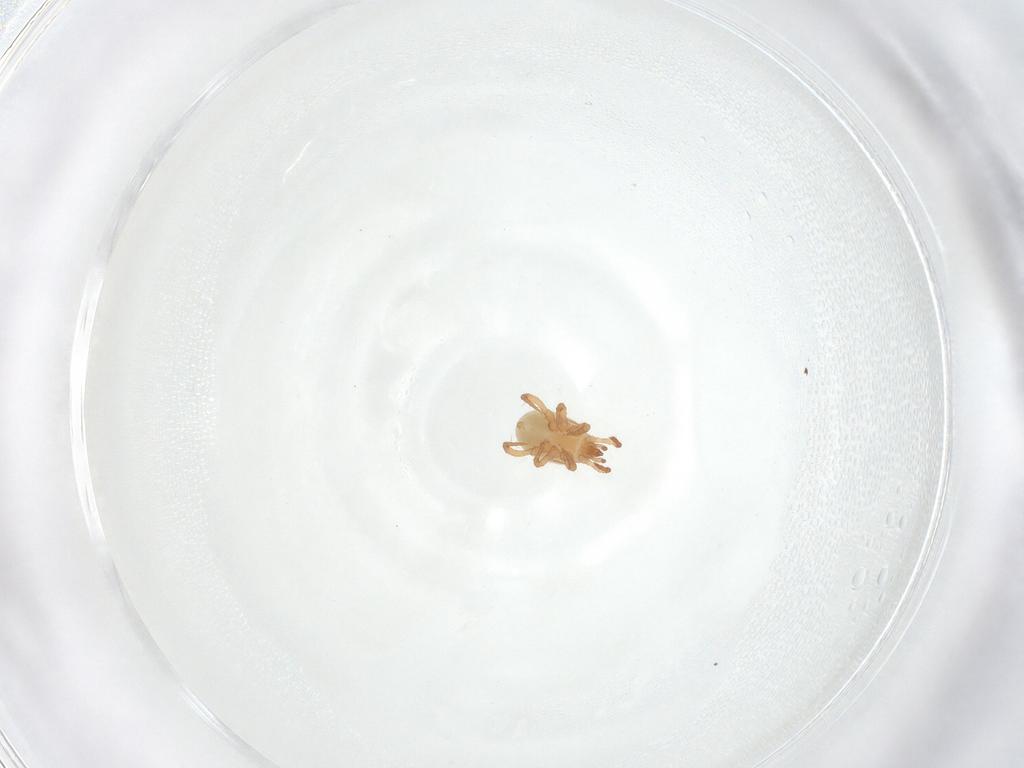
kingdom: Animalia
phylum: Arthropoda
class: Arachnida
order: Mesostigmata
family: Parasitidae
